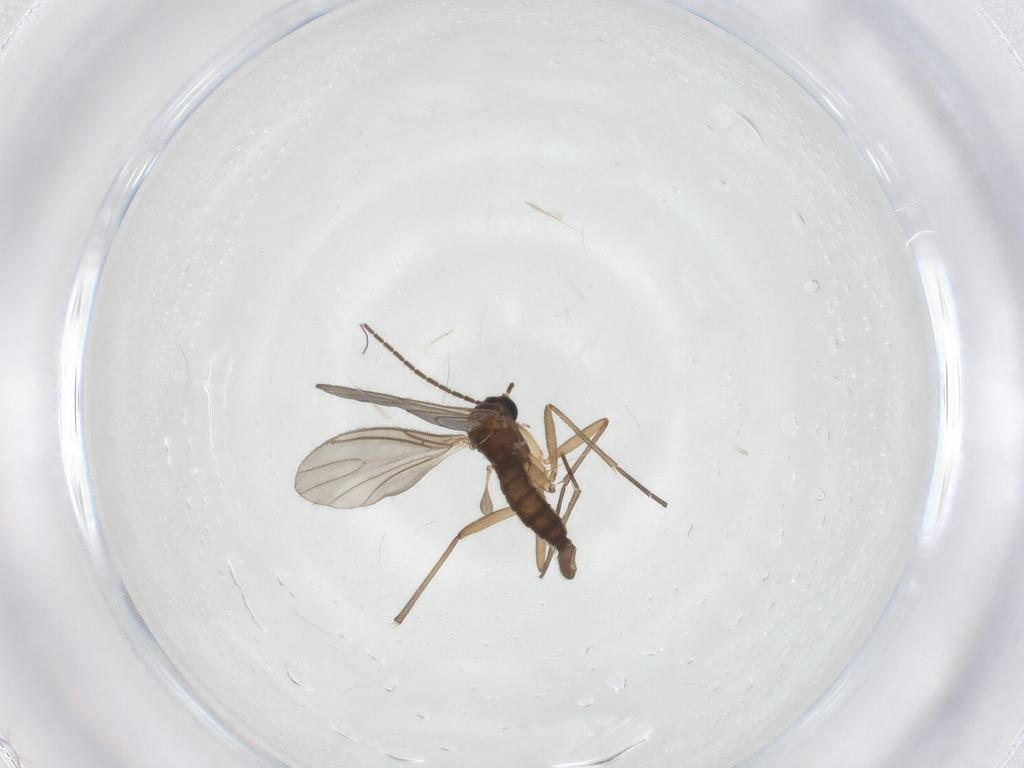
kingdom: Animalia
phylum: Arthropoda
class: Insecta
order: Diptera
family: Sciaridae
